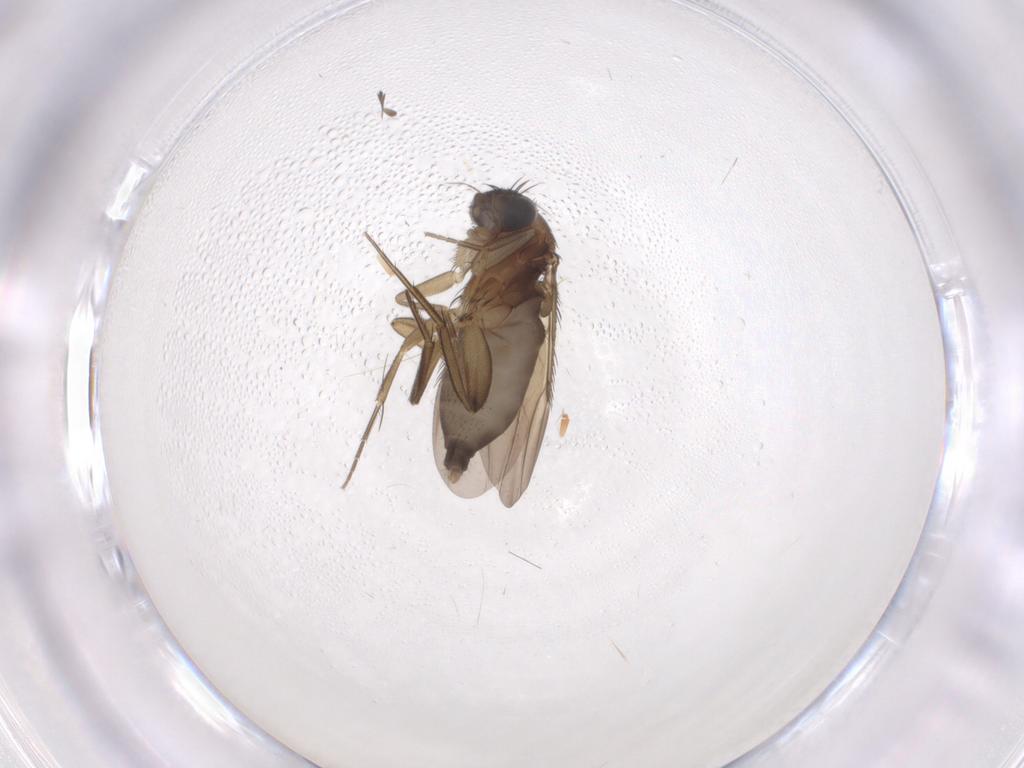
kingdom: Animalia
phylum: Arthropoda
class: Insecta
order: Diptera
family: Phoridae
